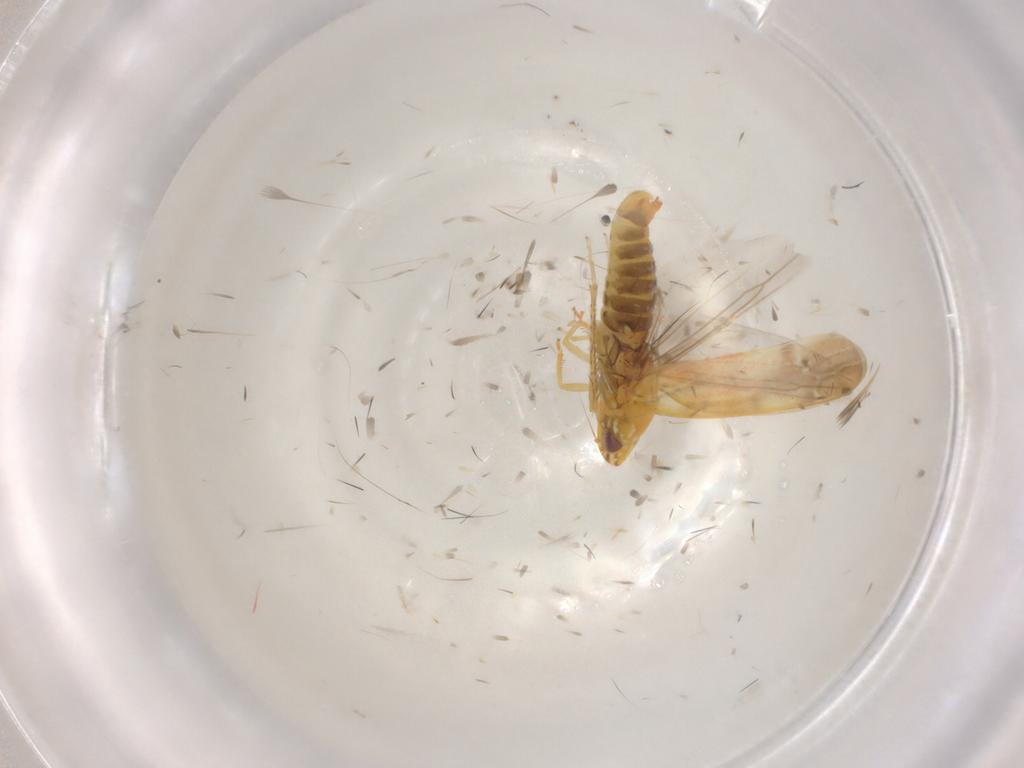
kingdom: Animalia
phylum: Arthropoda
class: Insecta
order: Hemiptera
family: Cicadellidae
